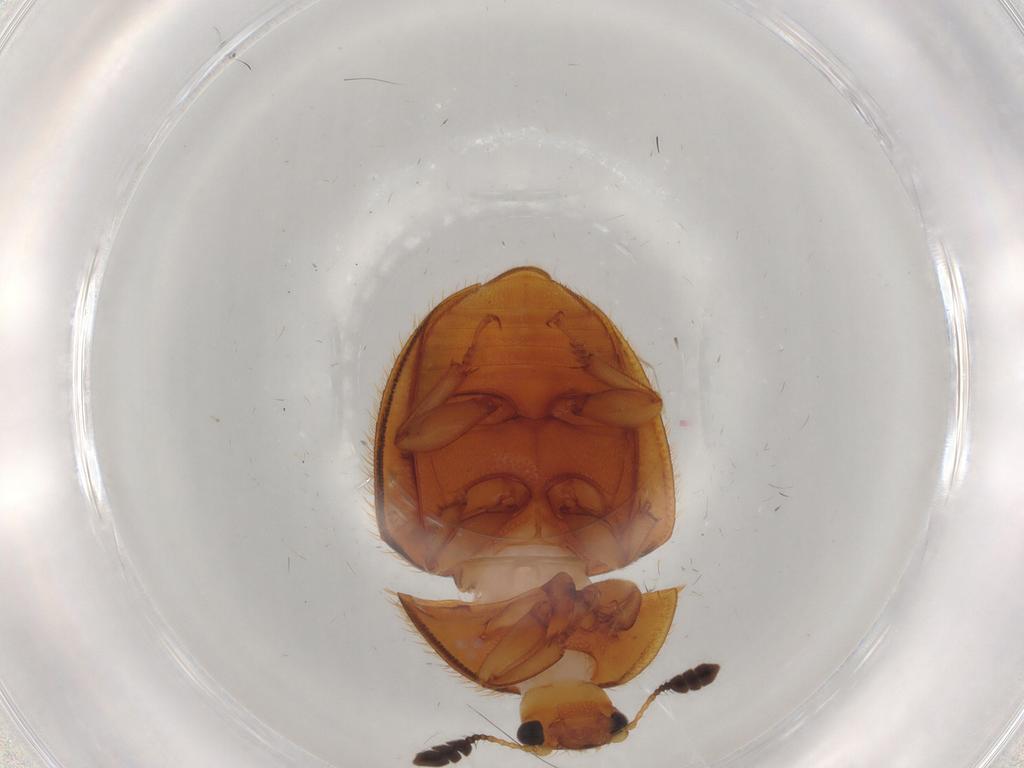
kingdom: Animalia
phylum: Arthropoda
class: Insecta
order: Coleoptera
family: Nitidulidae
